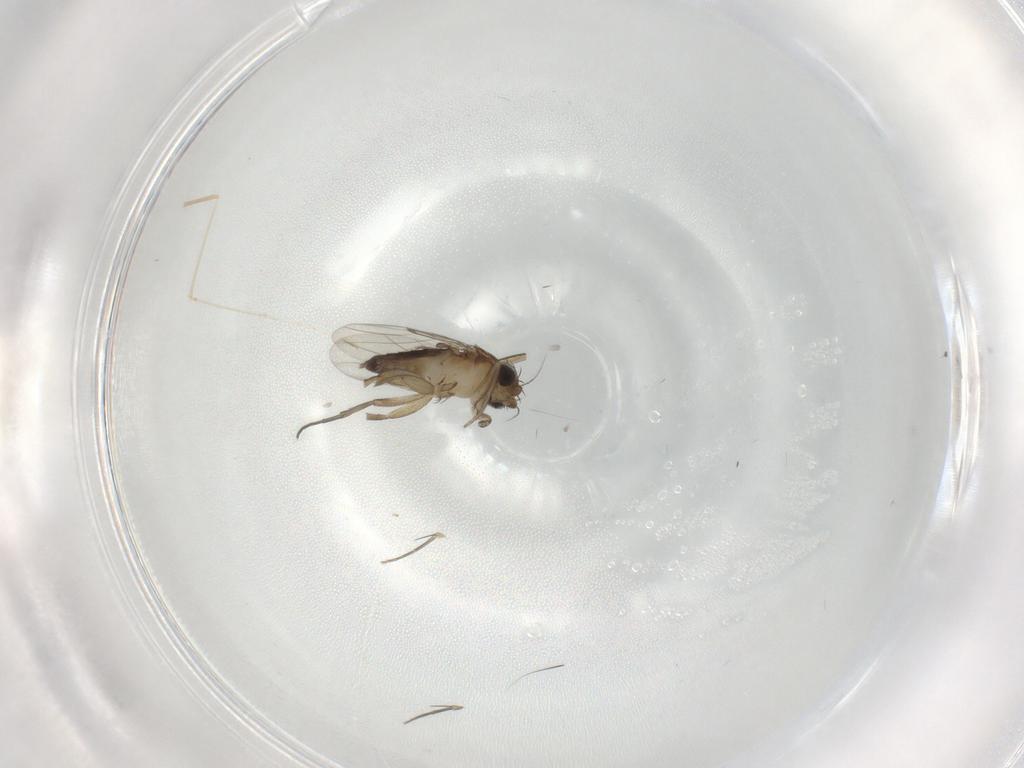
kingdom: Animalia
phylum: Arthropoda
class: Insecta
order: Diptera
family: Phoridae
